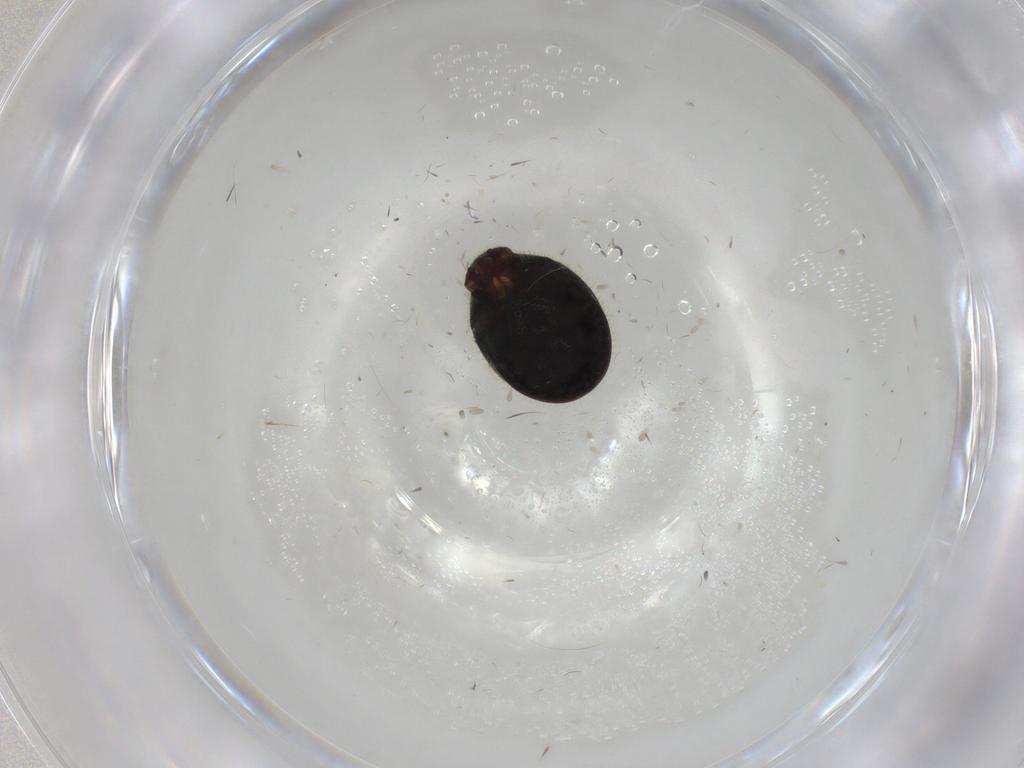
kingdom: Animalia
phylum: Arthropoda
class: Insecta
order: Coleoptera
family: Ptinidae
